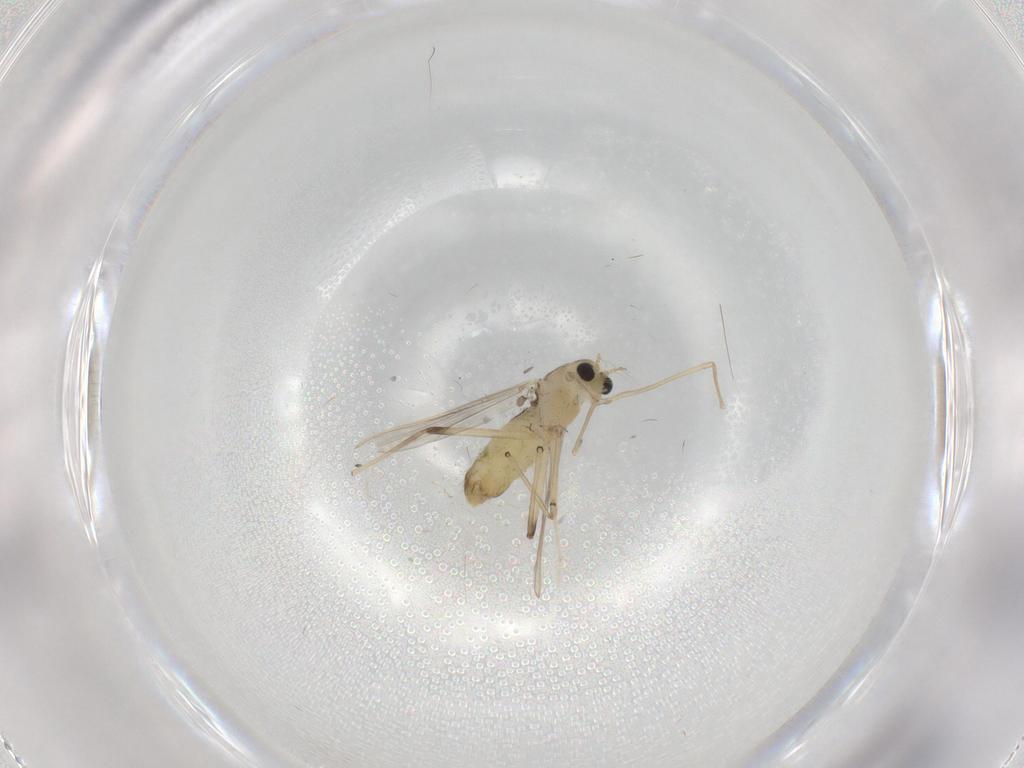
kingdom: Animalia
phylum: Arthropoda
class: Insecta
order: Diptera
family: Chironomidae
